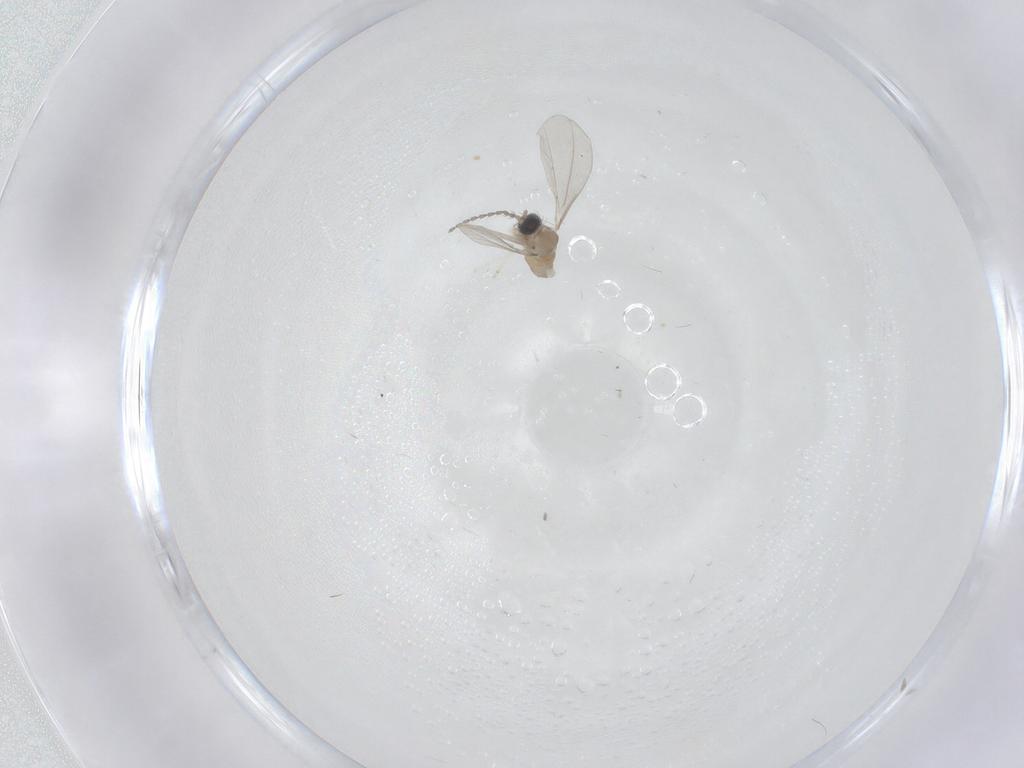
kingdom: Animalia
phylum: Arthropoda
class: Insecta
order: Diptera
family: Cecidomyiidae
